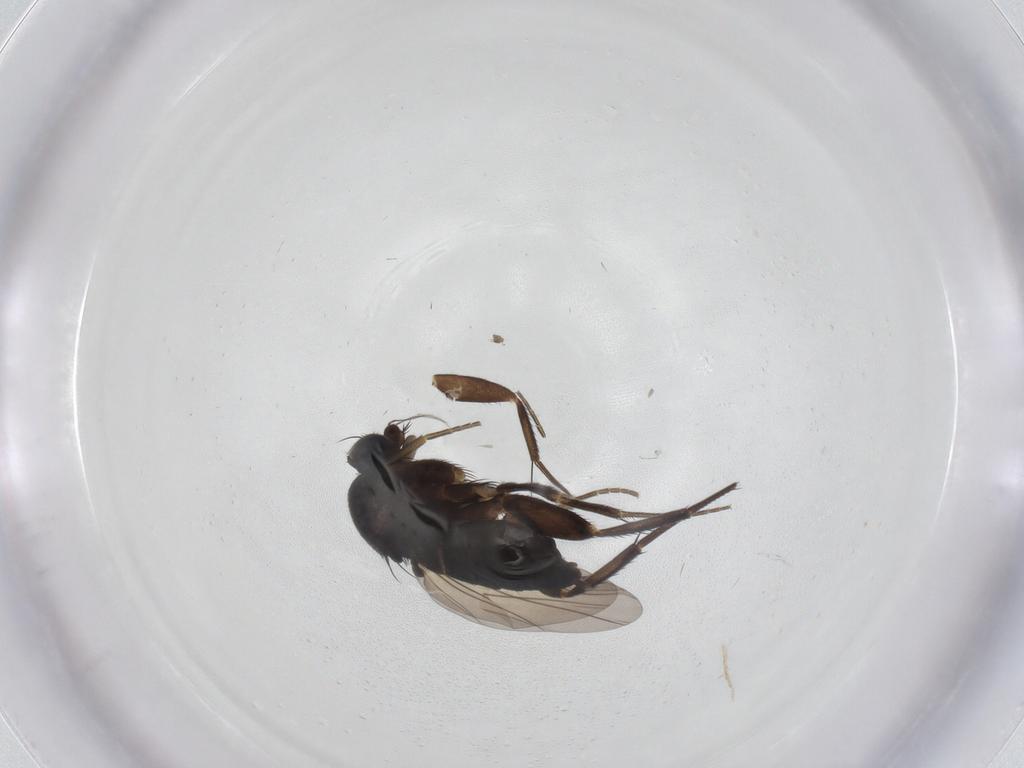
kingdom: Animalia
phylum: Arthropoda
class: Insecta
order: Diptera
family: Phoridae
